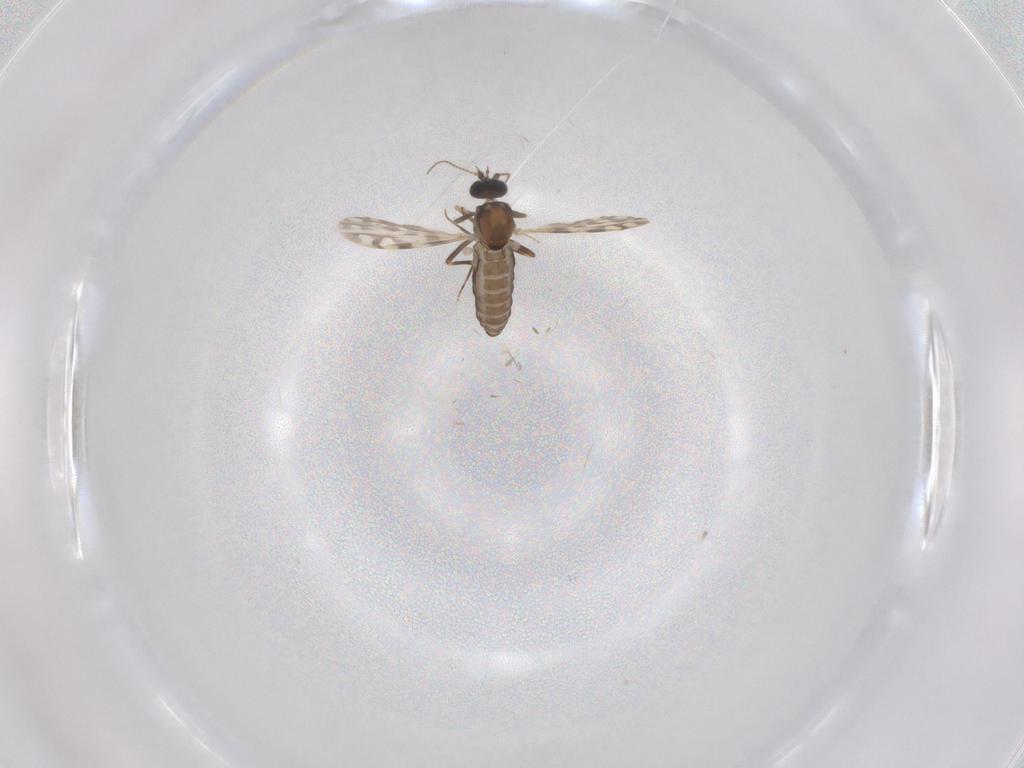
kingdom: Animalia
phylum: Arthropoda
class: Insecta
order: Diptera
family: Ceratopogonidae
